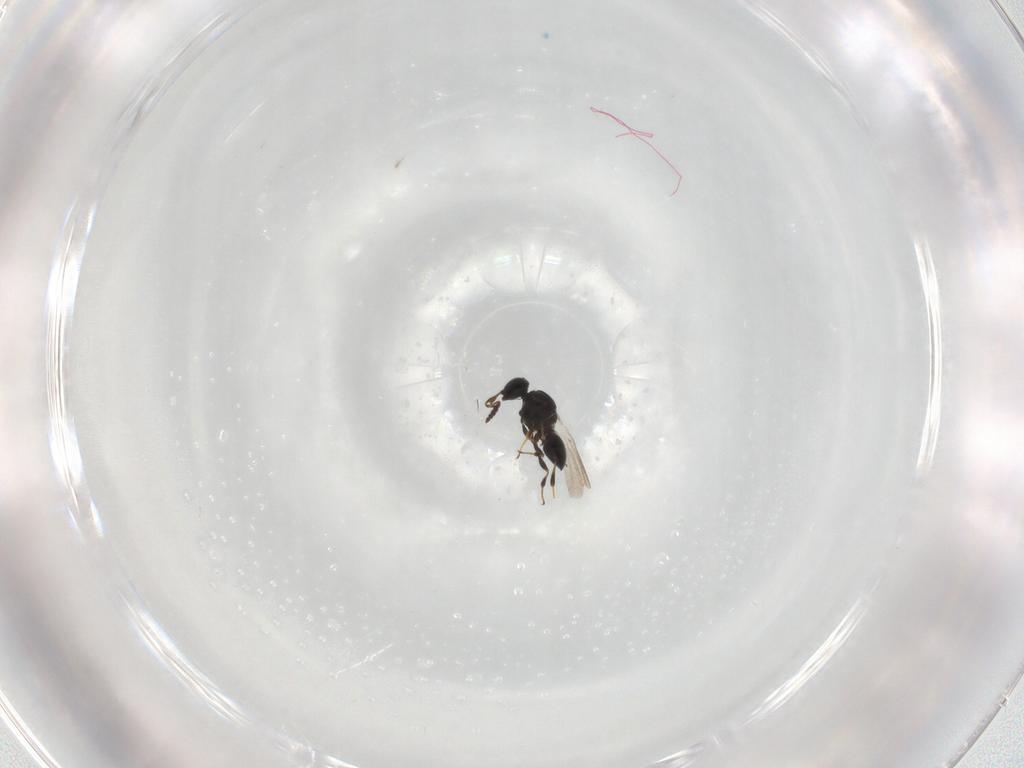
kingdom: Animalia
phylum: Arthropoda
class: Insecta
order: Hymenoptera
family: Platygastridae
